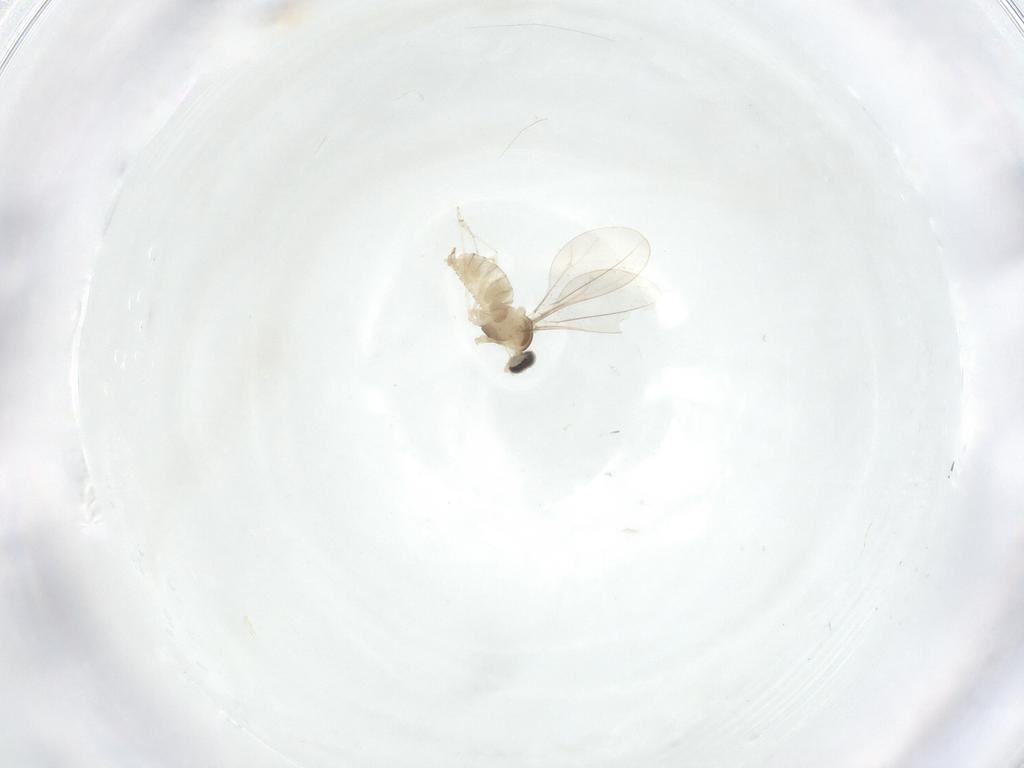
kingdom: Animalia
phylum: Arthropoda
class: Insecta
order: Diptera
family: Cecidomyiidae
